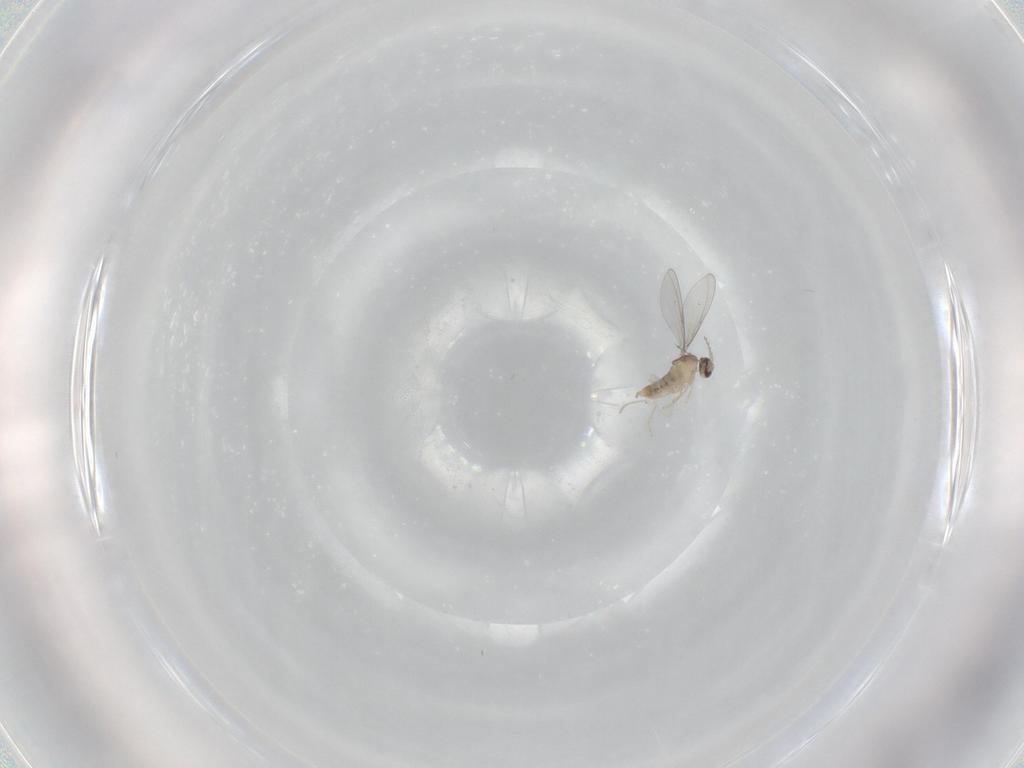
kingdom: Animalia
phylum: Arthropoda
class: Insecta
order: Diptera
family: Cecidomyiidae
